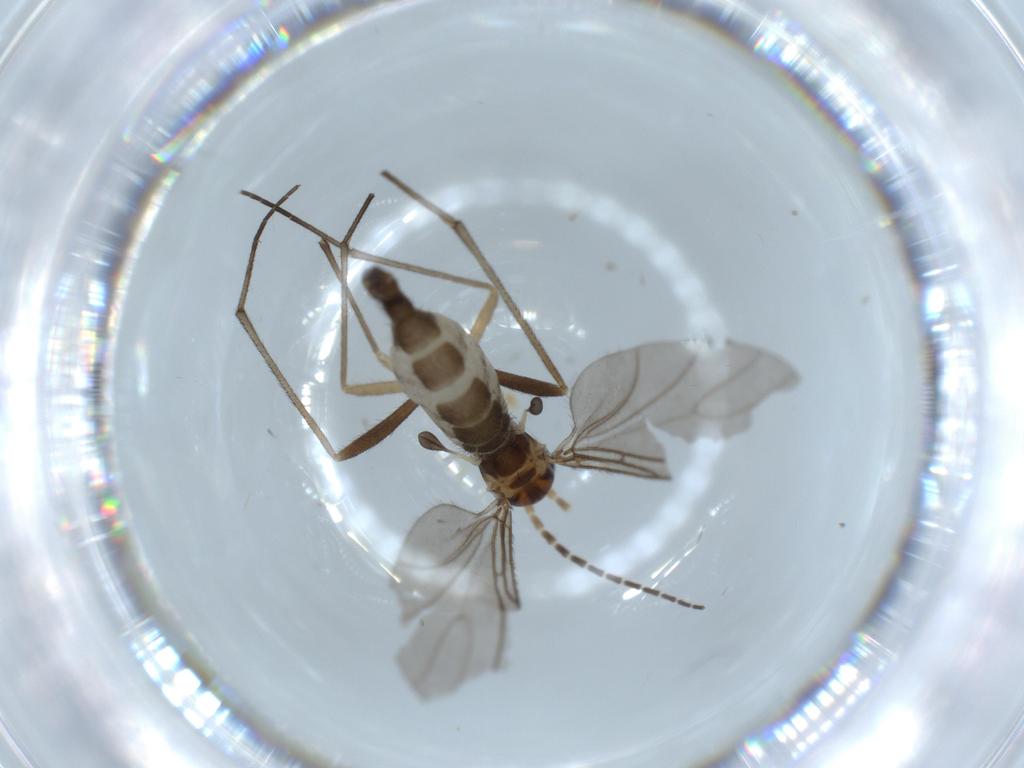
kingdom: Animalia
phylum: Arthropoda
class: Insecta
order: Diptera
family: Sciaridae
